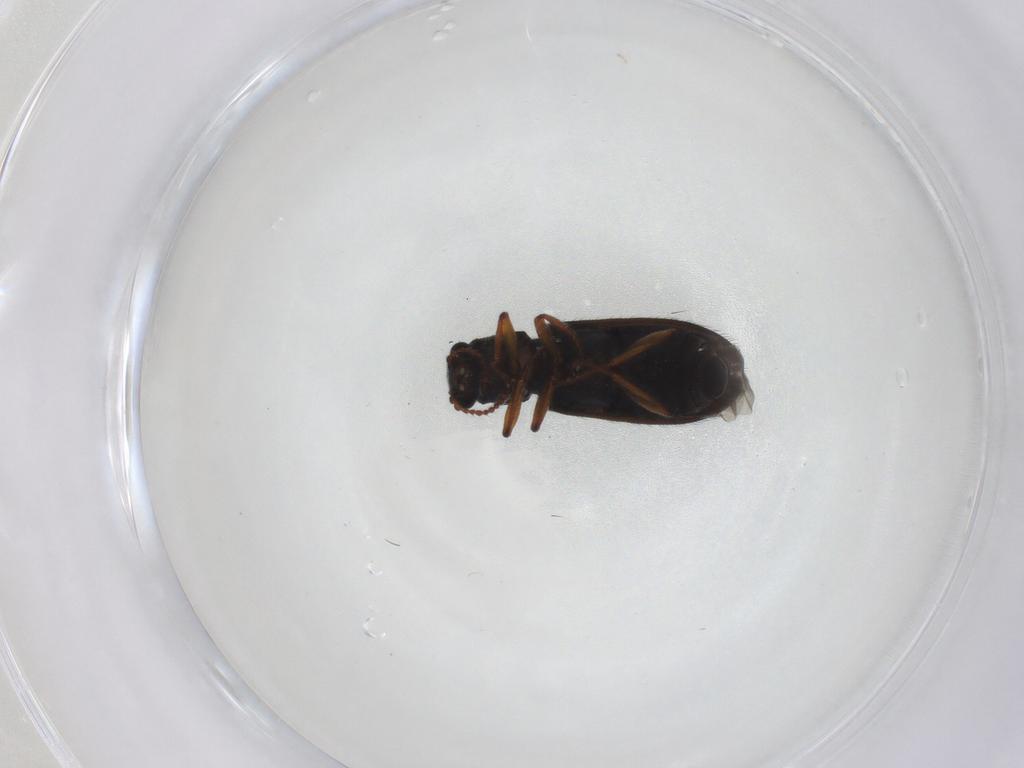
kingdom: Animalia
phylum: Arthropoda
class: Insecta
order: Coleoptera
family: Melyridae
